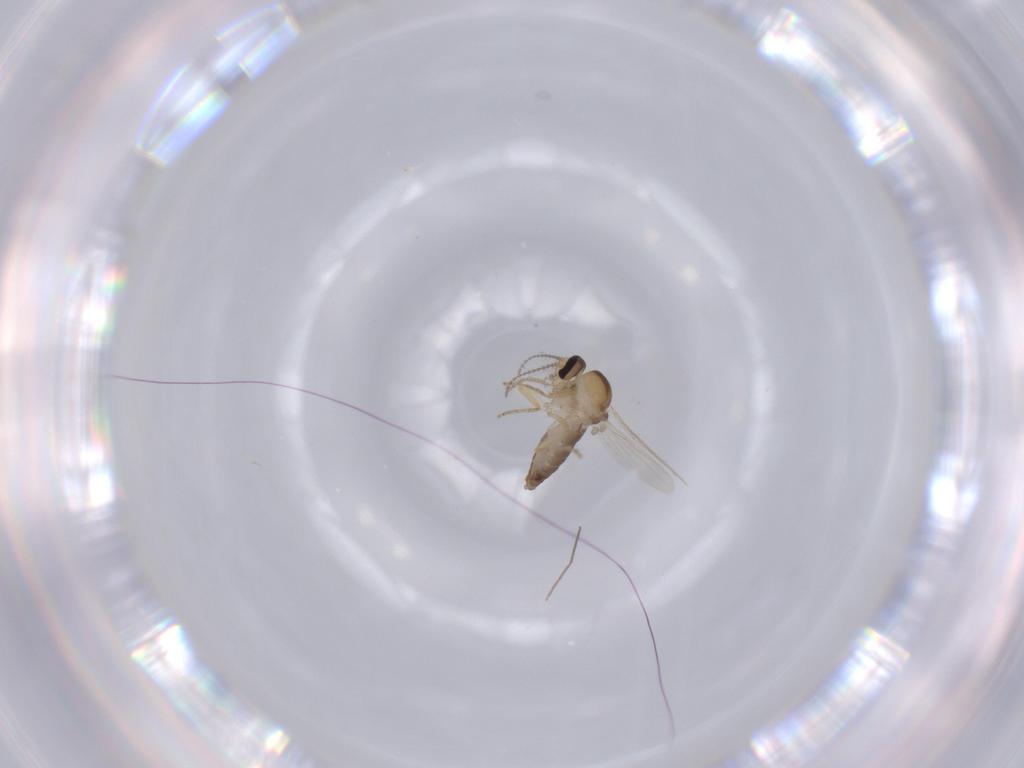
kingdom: Animalia
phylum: Arthropoda
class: Insecta
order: Diptera
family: Ceratopogonidae
